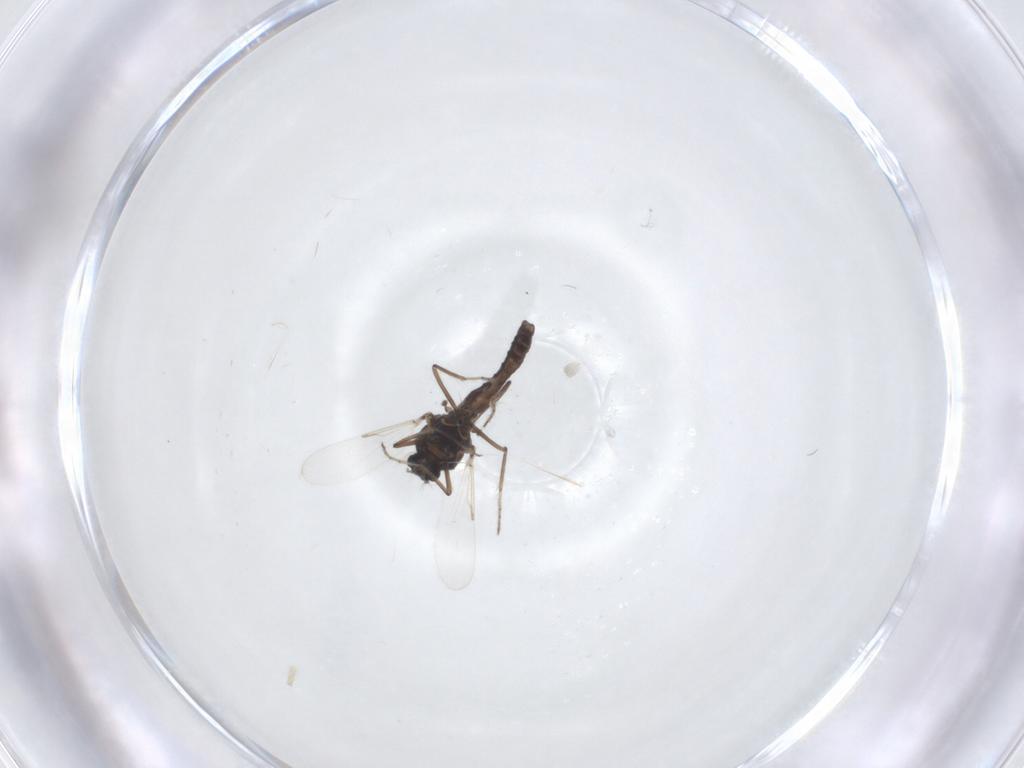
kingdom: Animalia
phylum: Arthropoda
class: Insecta
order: Diptera
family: Ceratopogonidae
